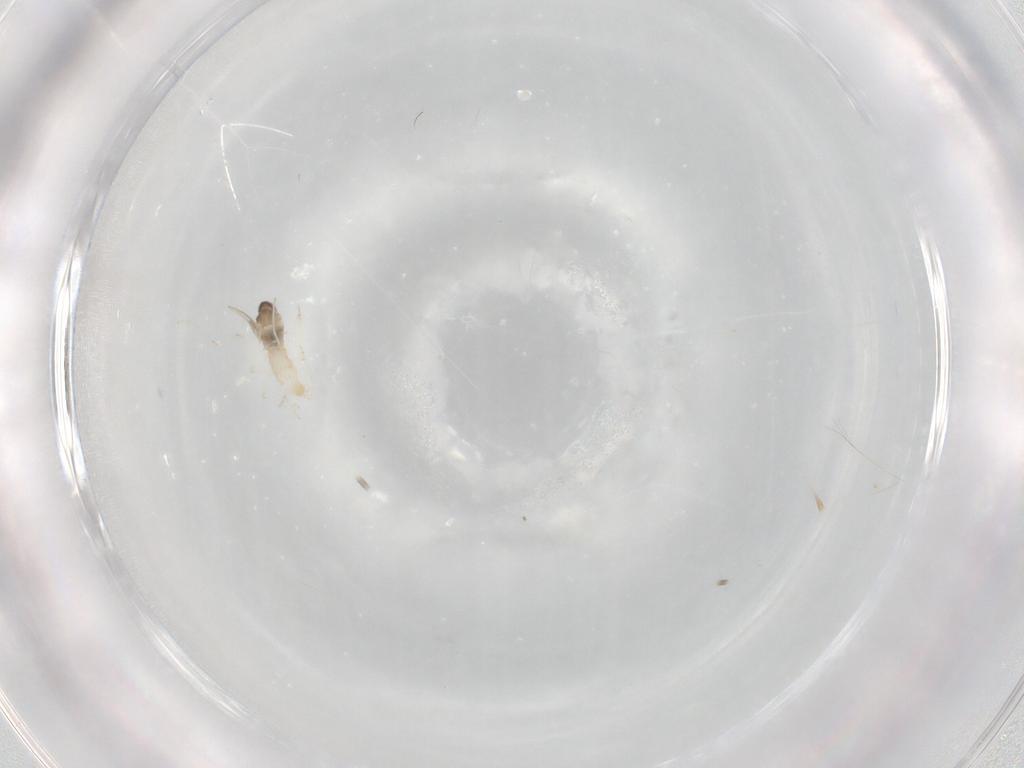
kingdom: Animalia
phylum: Arthropoda
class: Insecta
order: Diptera
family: Cecidomyiidae
